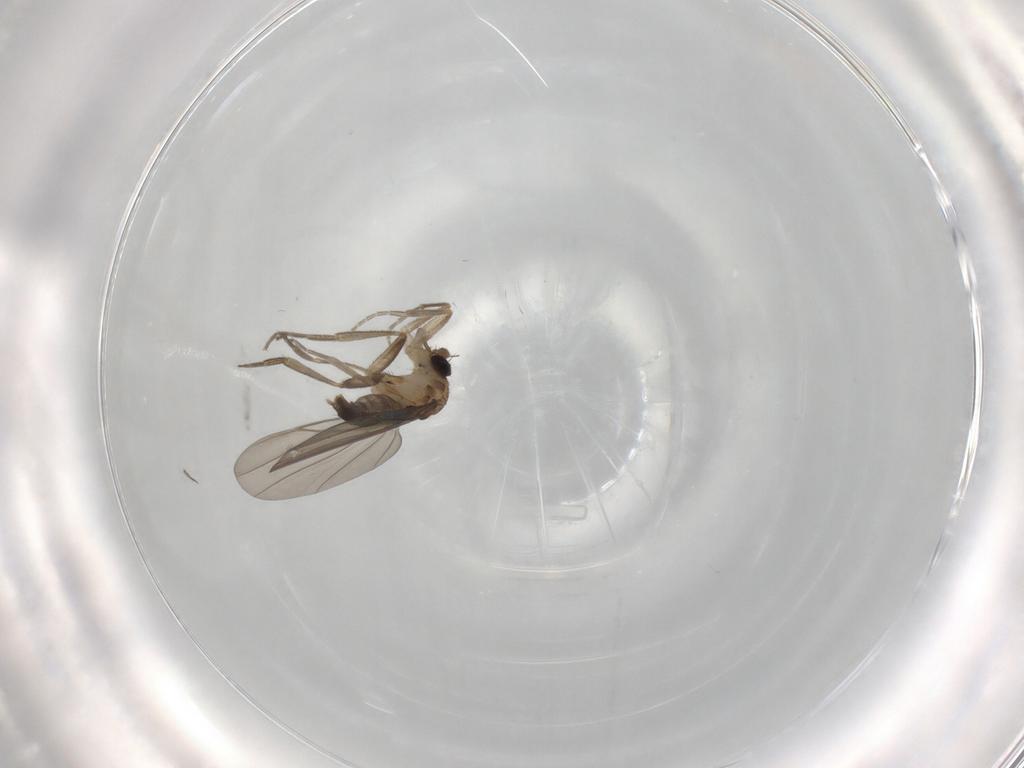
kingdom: Animalia
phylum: Arthropoda
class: Insecta
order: Diptera
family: Phoridae
